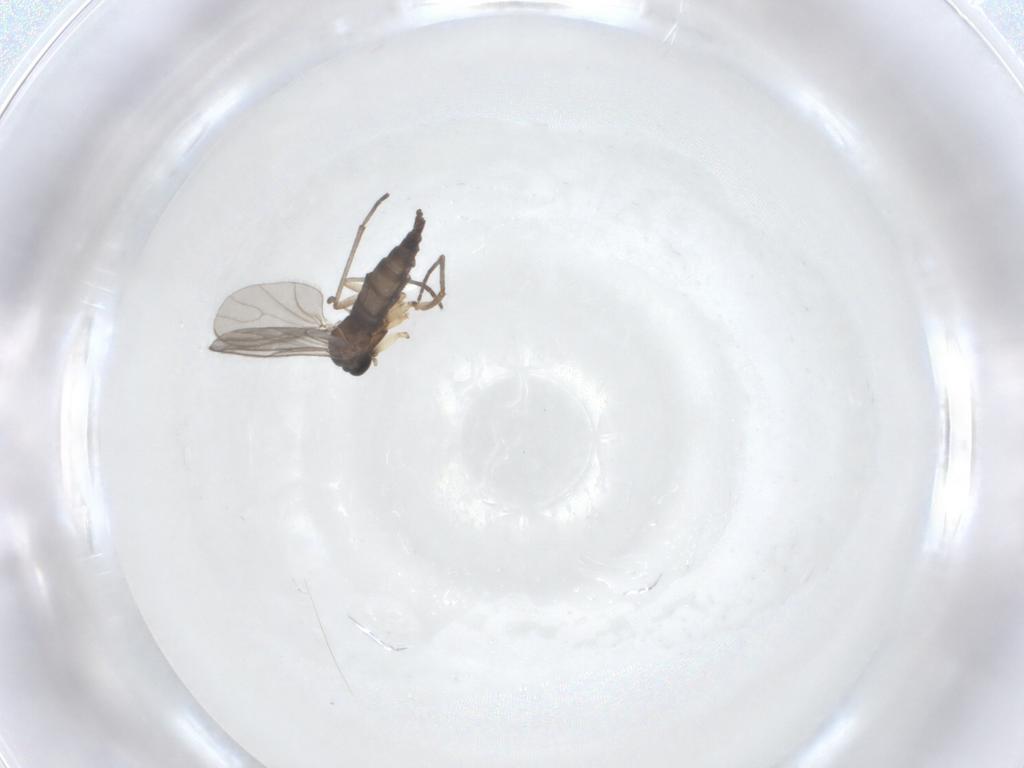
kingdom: Animalia
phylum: Arthropoda
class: Insecta
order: Diptera
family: Sciaridae
